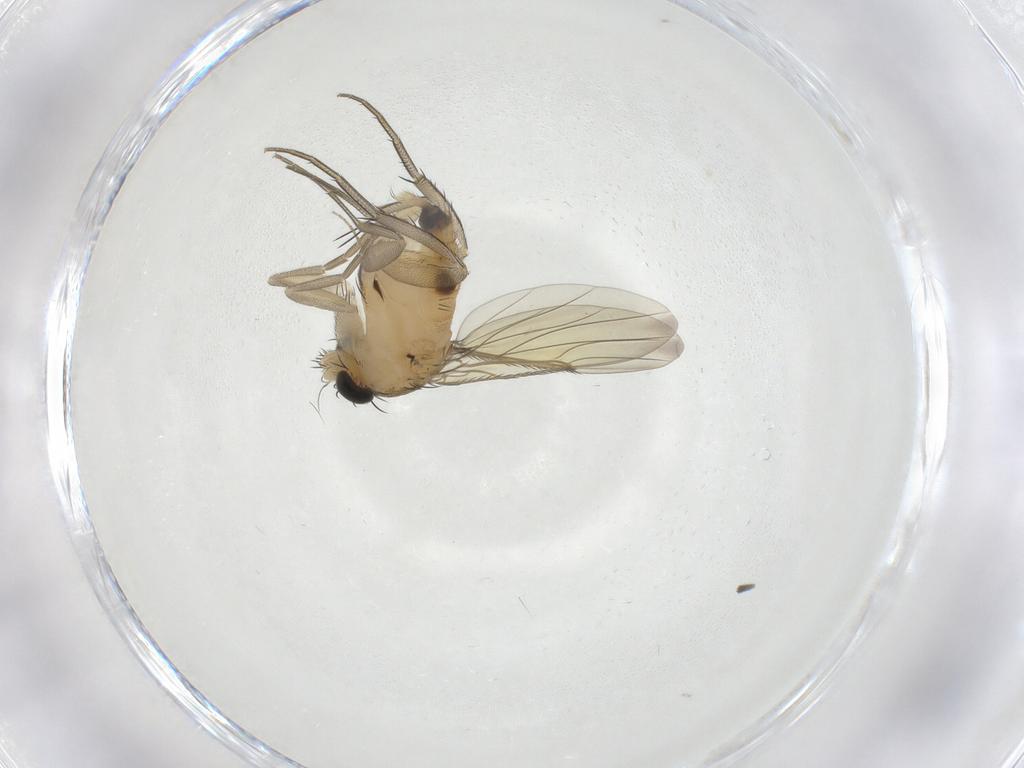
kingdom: Animalia
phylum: Arthropoda
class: Insecta
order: Diptera
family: Phoridae
